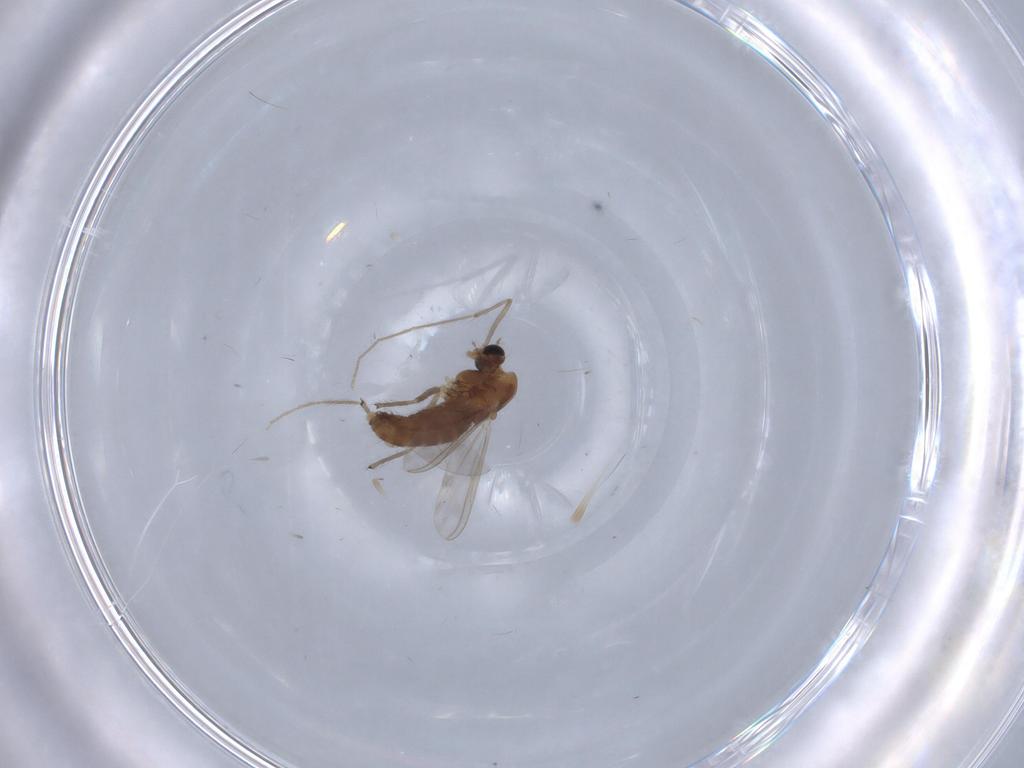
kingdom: Animalia
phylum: Arthropoda
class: Insecta
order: Diptera
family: Chironomidae
